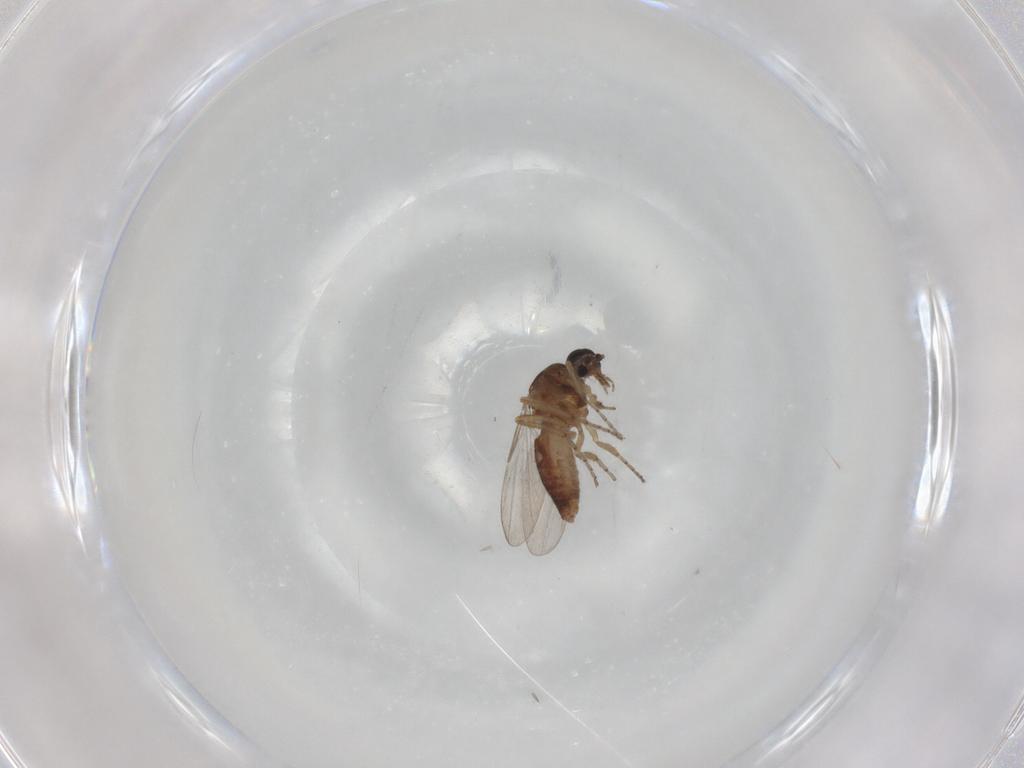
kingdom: Animalia
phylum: Arthropoda
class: Insecta
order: Diptera
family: Ceratopogonidae
